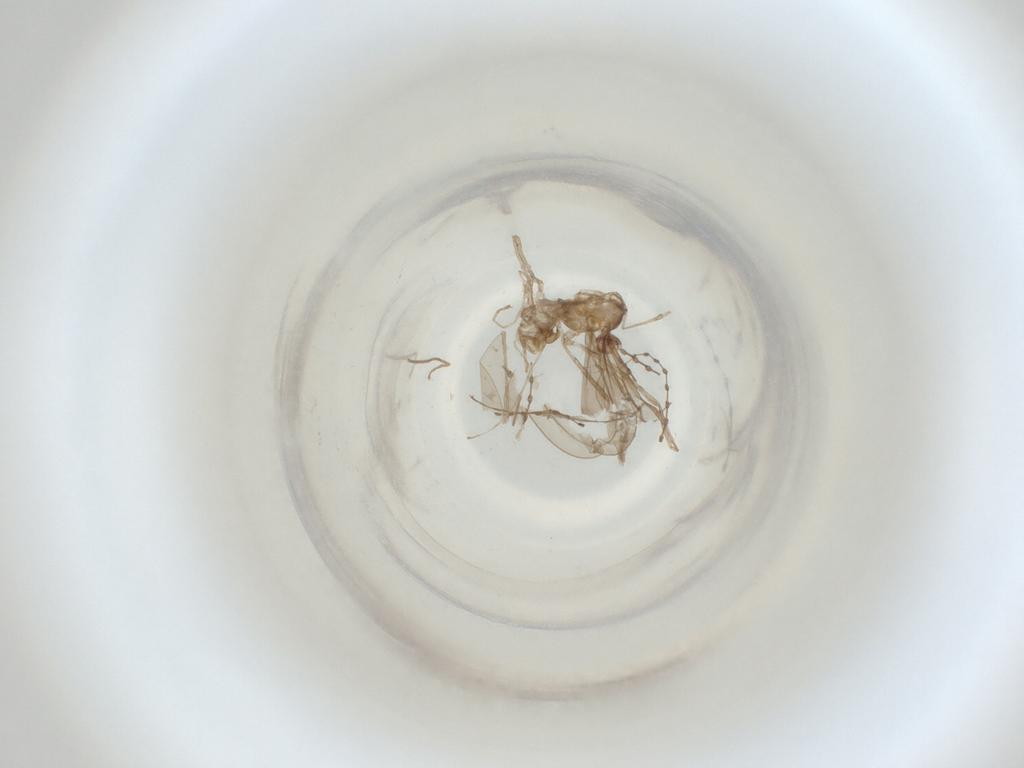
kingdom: Animalia
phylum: Arthropoda
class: Insecta
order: Diptera
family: Cecidomyiidae
